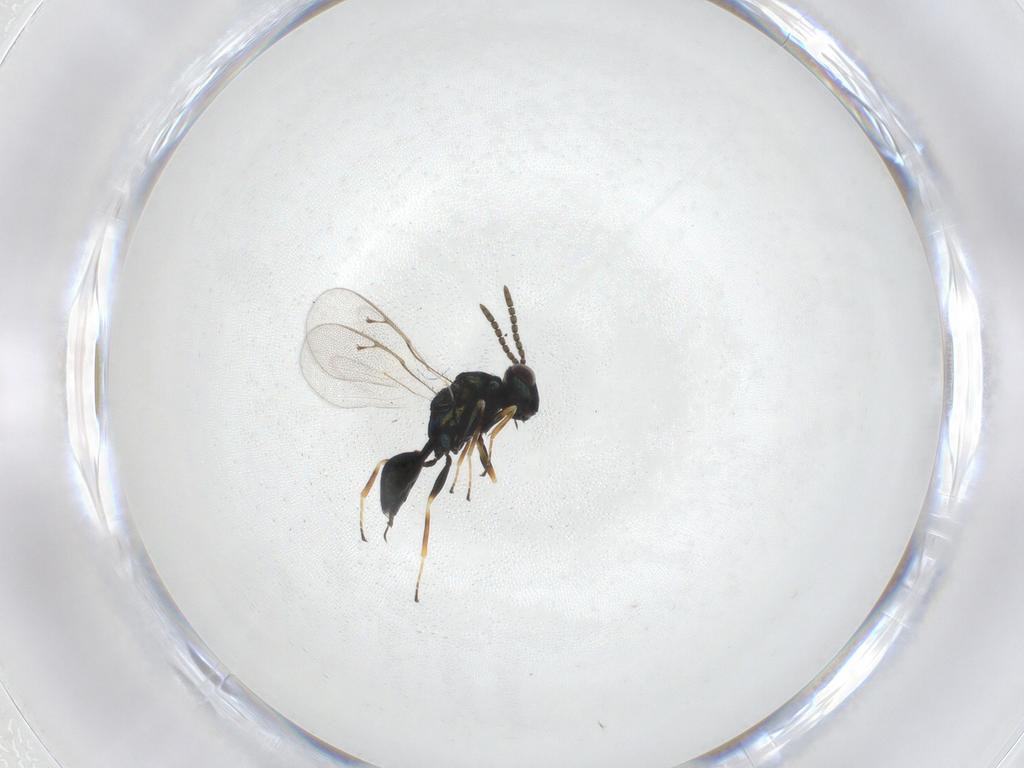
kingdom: Animalia
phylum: Arthropoda
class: Insecta
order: Hymenoptera
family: Pteromalidae
